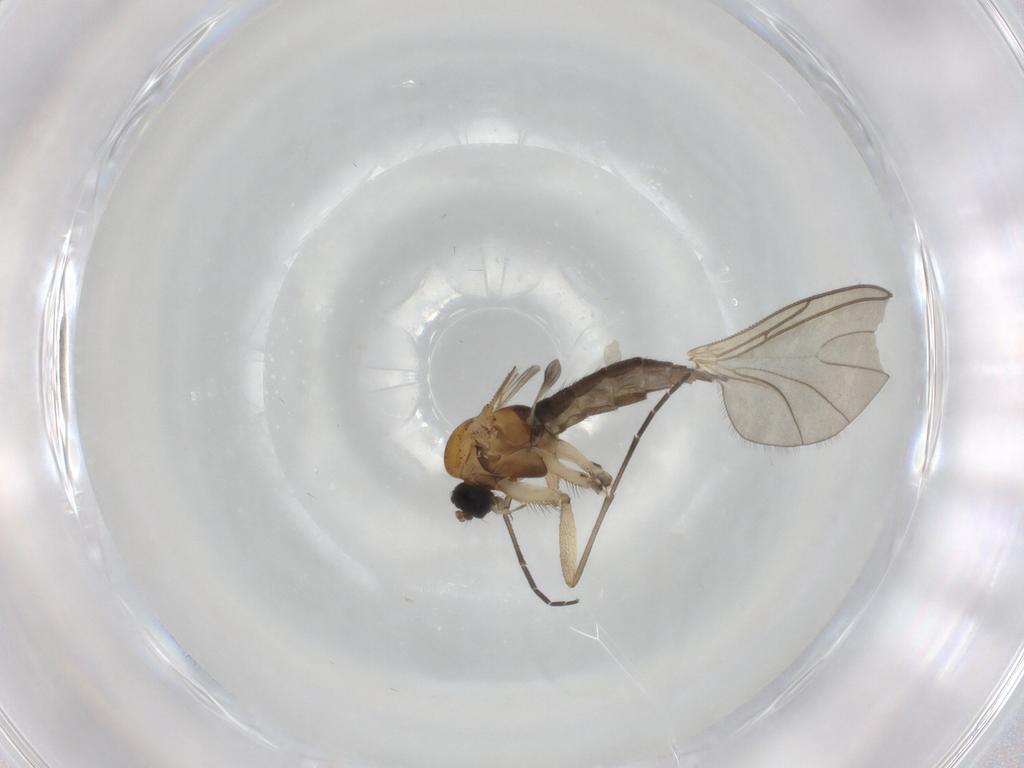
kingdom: Animalia
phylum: Arthropoda
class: Insecta
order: Diptera
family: Sciaridae
